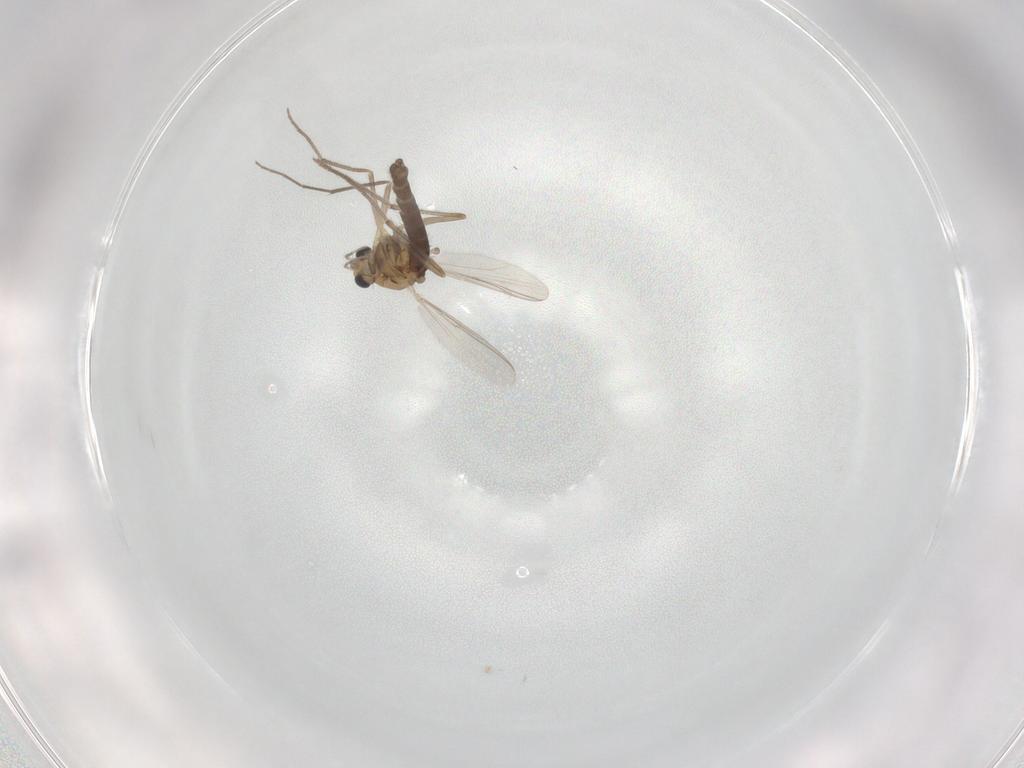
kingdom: Animalia
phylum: Arthropoda
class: Insecta
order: Diptera
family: Chironomidae
